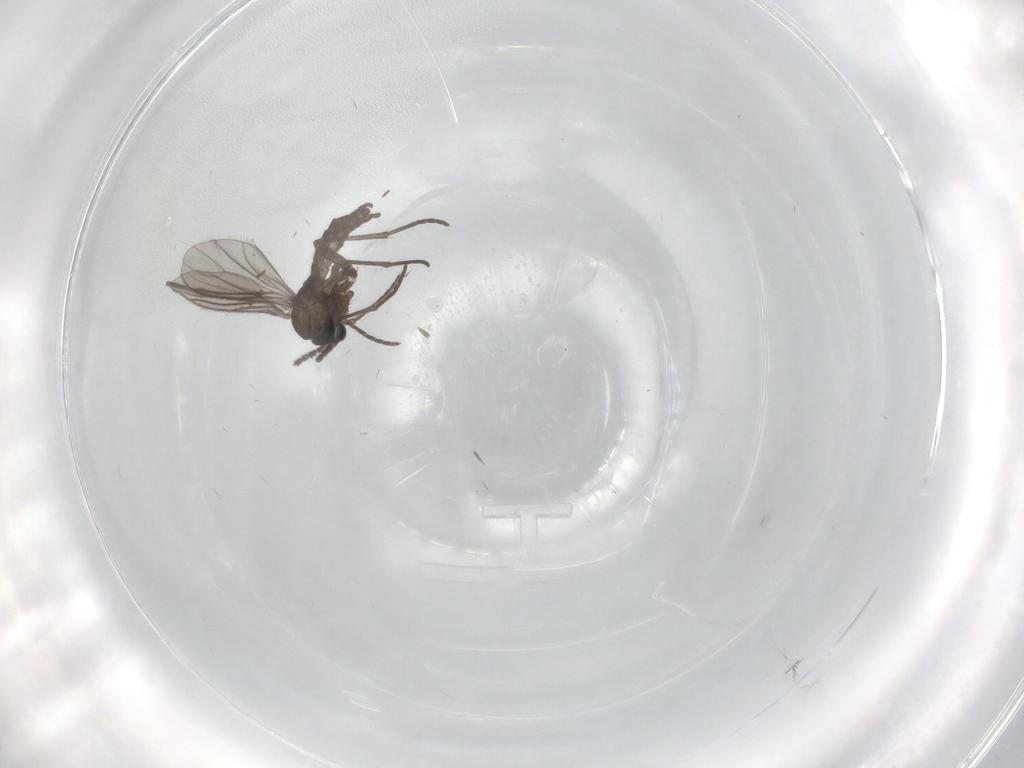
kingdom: Animalia
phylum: Arthropoda
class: Insecta
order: Diptera
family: Sciaridae
